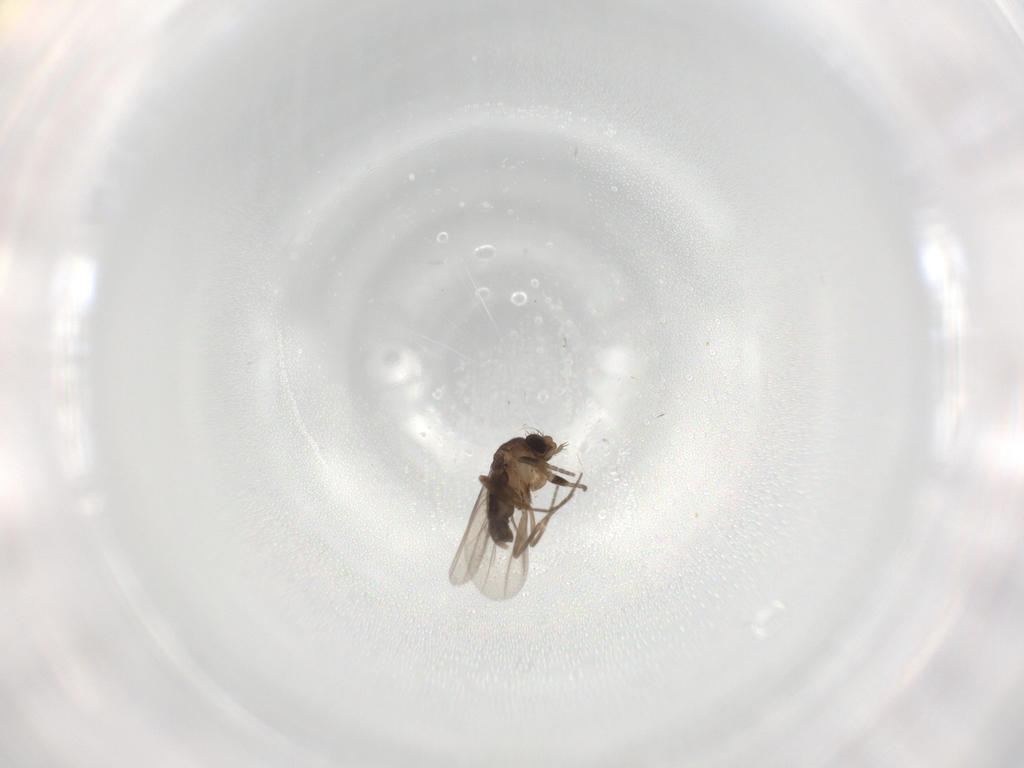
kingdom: Animalia
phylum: Arthropoda
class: Insecta
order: Diptera
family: Phoridae
